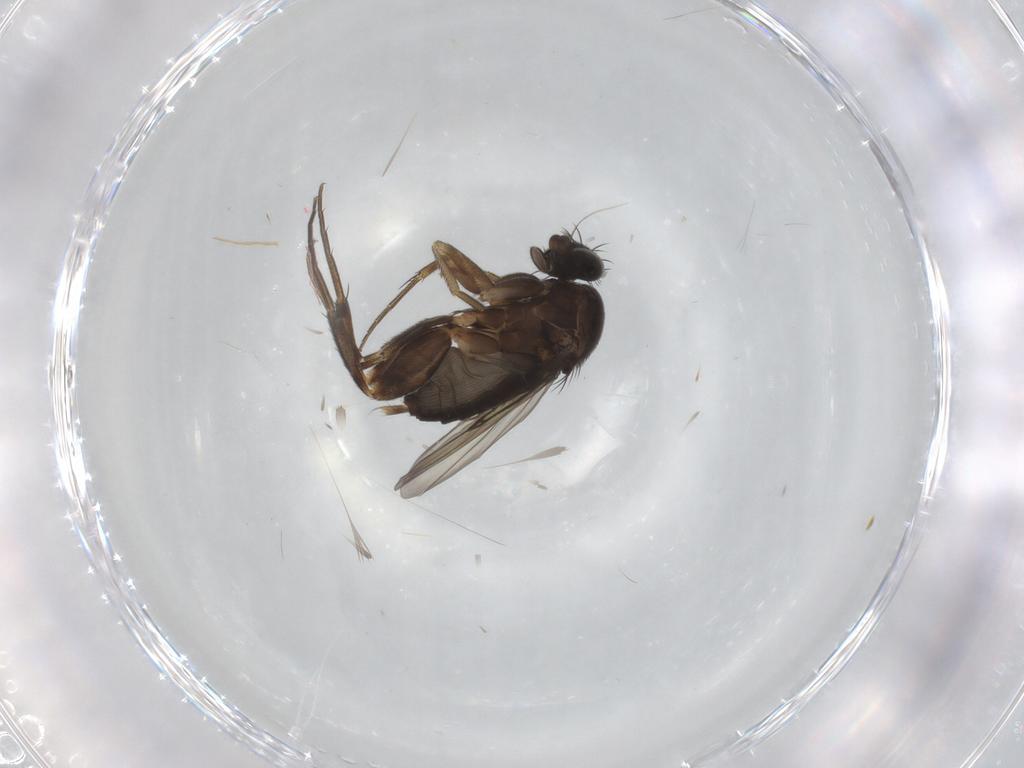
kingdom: Animalia
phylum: Arthropoda
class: Insecta
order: Diptera
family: Phoridae
